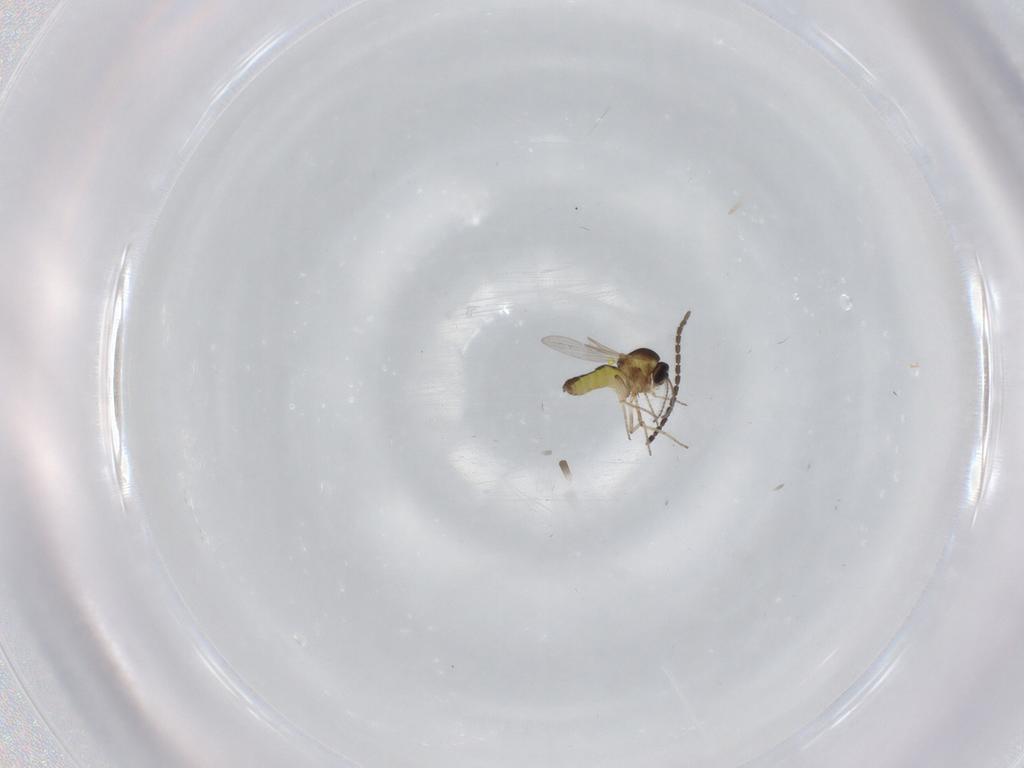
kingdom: Animalia
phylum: Arthropoda
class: Insecta
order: Diptera
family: Ceratopogonidae
